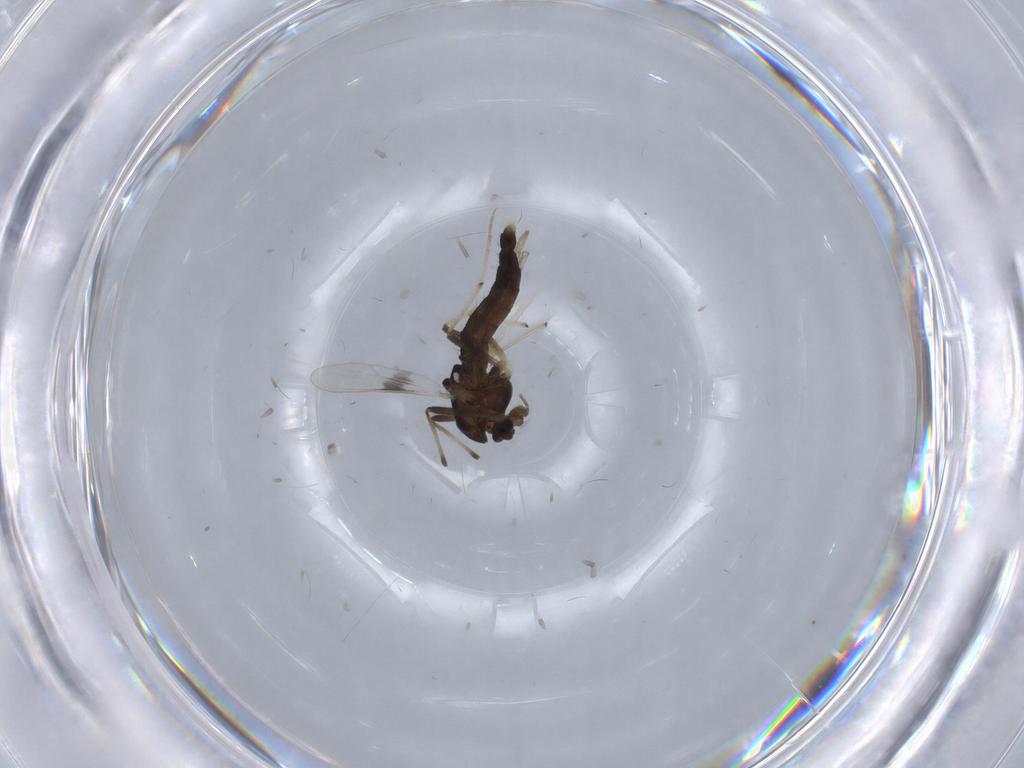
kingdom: Animalia
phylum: Arthropoda
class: Insecta
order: Diptera
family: Chironomidae
